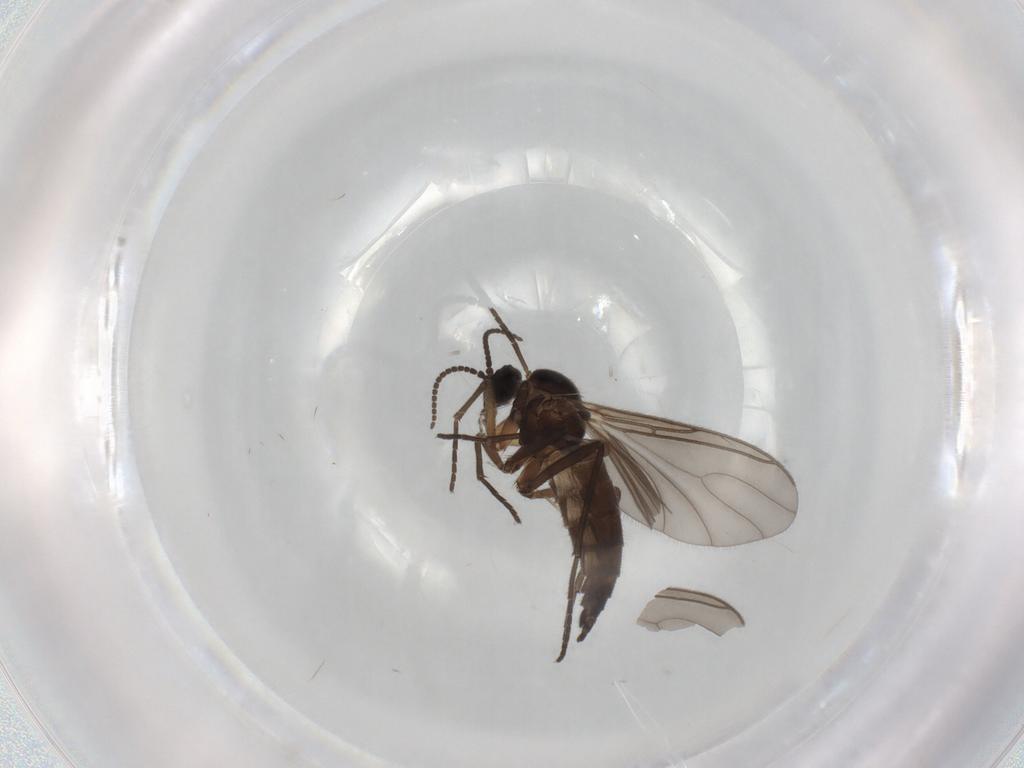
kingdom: Animalia
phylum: Arthropoda
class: Insecta
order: Diptera
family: Sciaridae
